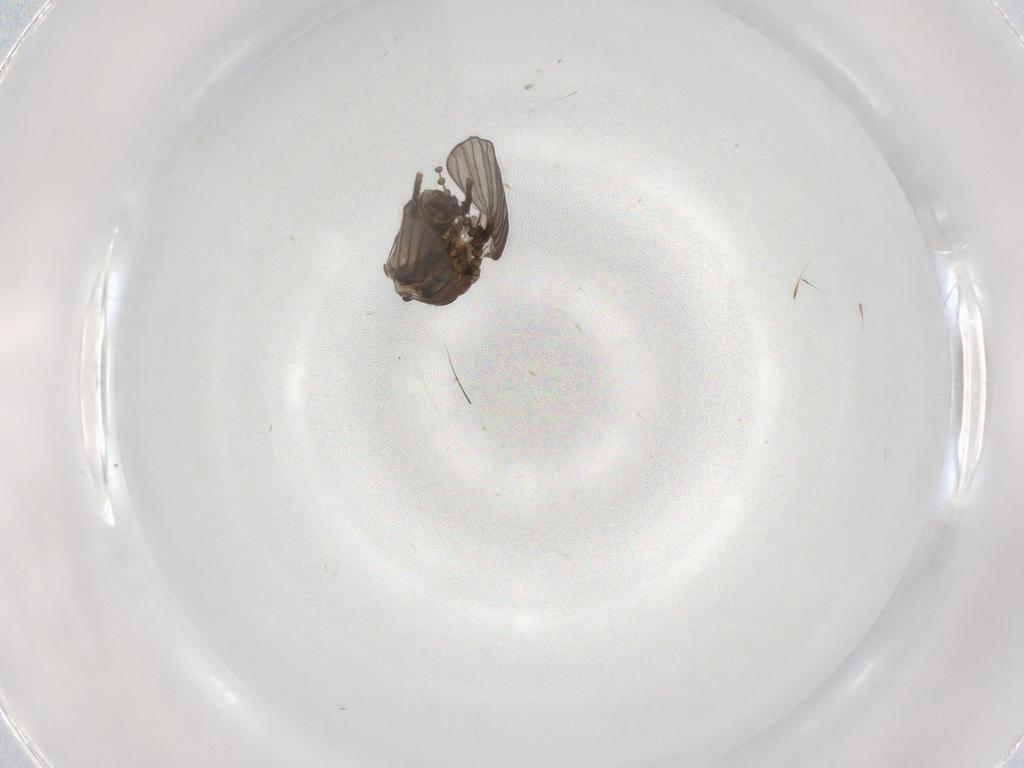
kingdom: Animalia
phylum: Arthropoda
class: Insecta
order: Diptera
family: Psychodidae
